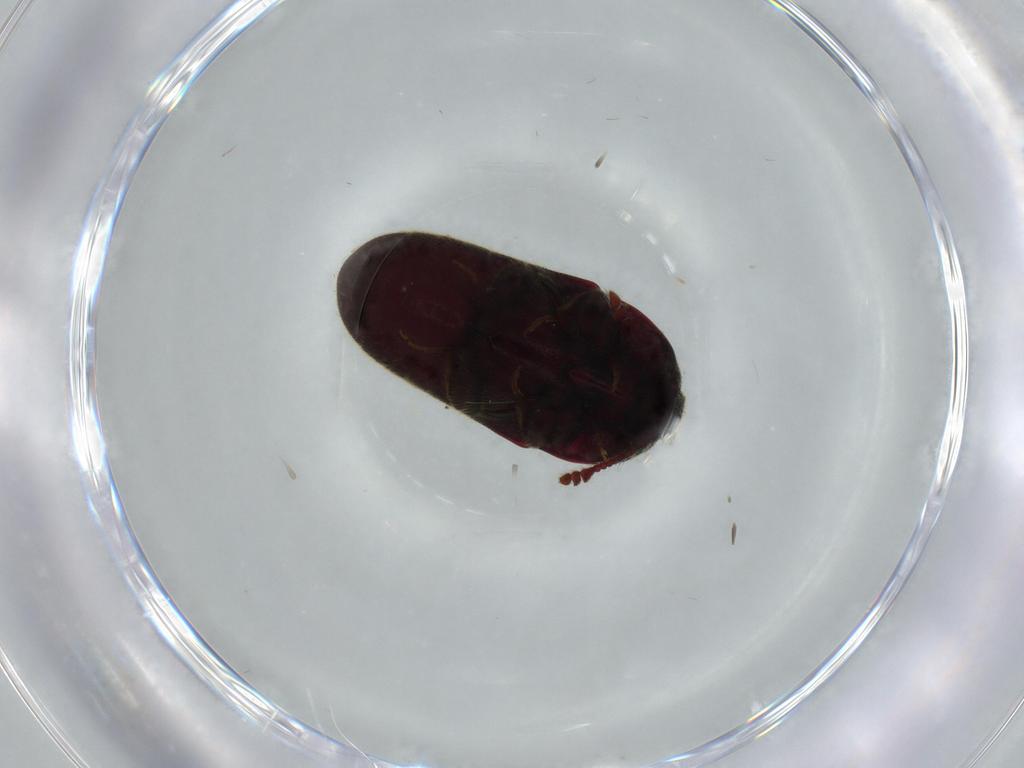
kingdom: Animalia
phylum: Arthropoda
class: Insecta
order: Coleoptera
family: Throscidae
